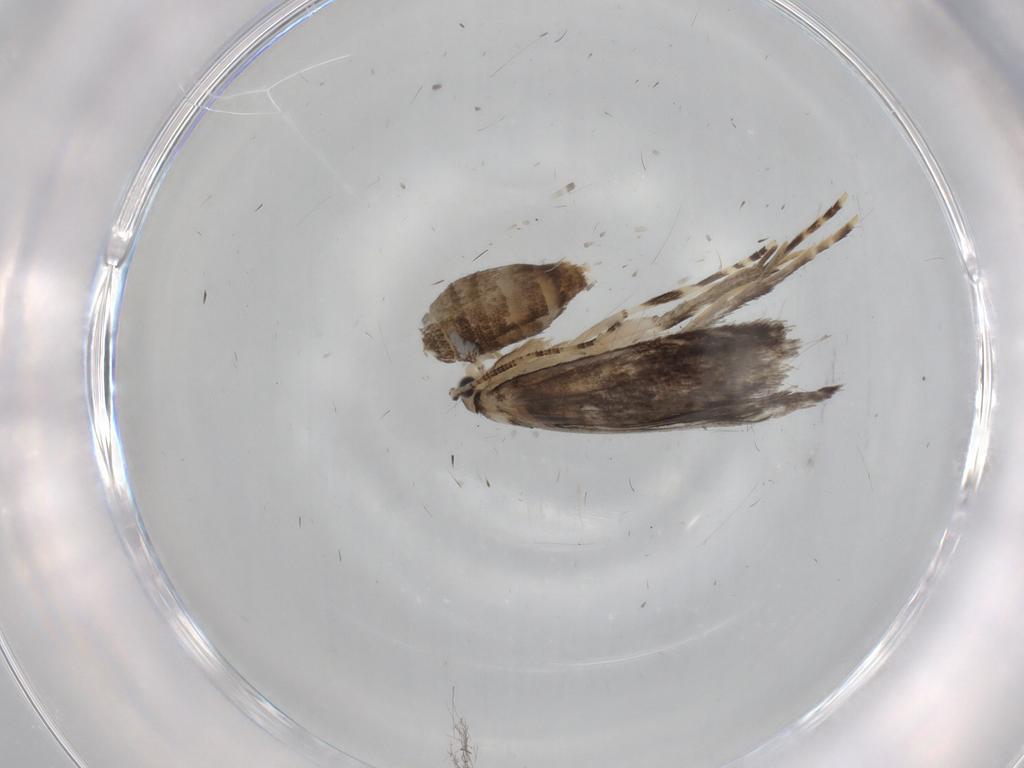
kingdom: Animalia
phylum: Arthropoda
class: Insecta
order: Lepidoptera
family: Tineidae
